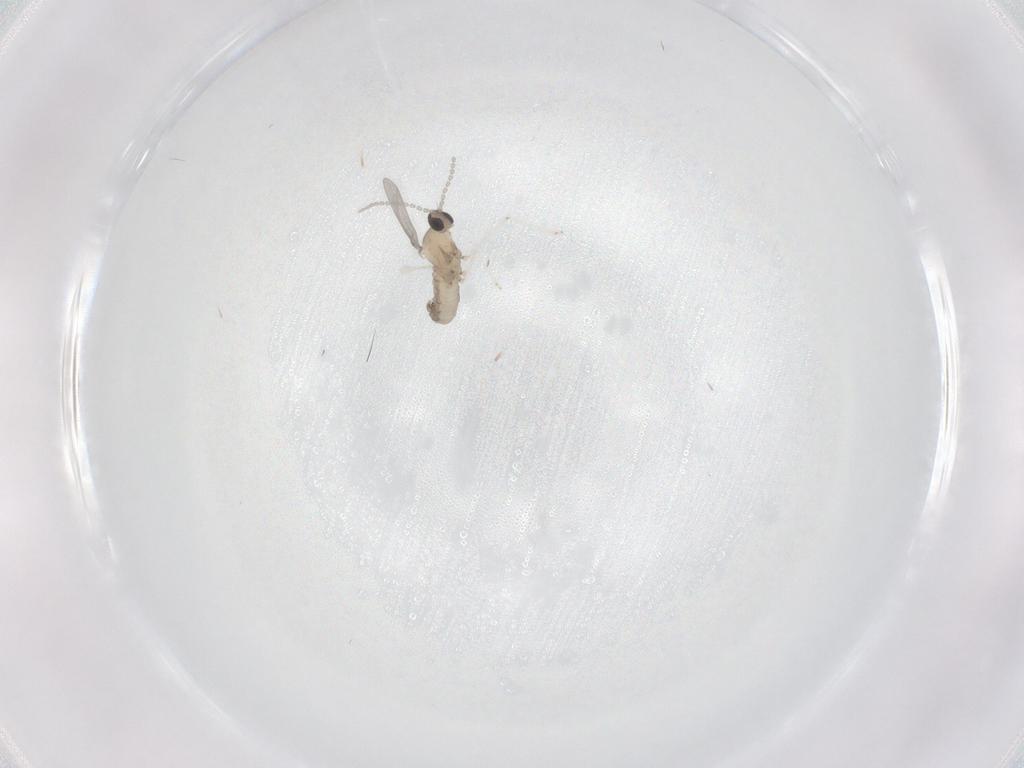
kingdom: Animalia
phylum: Arthropoda
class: Insecta
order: Diptera
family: Cecidomyiidae
